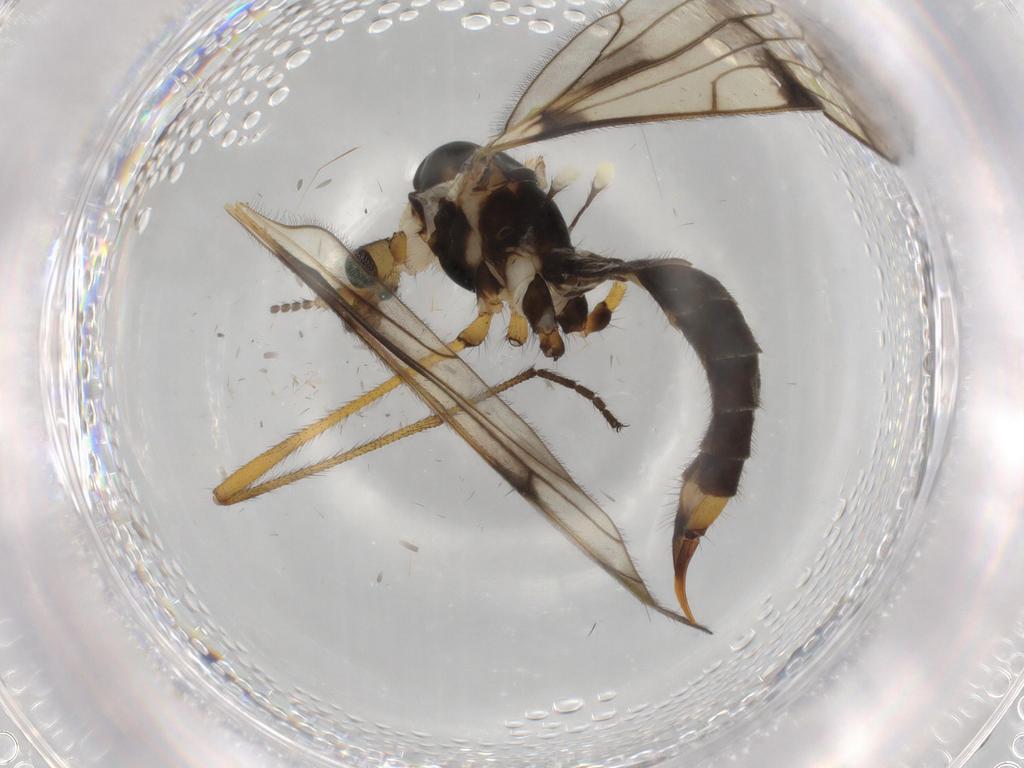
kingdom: Animalia
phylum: Arthropoda
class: Insecta
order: Diptera
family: Limoniidae
